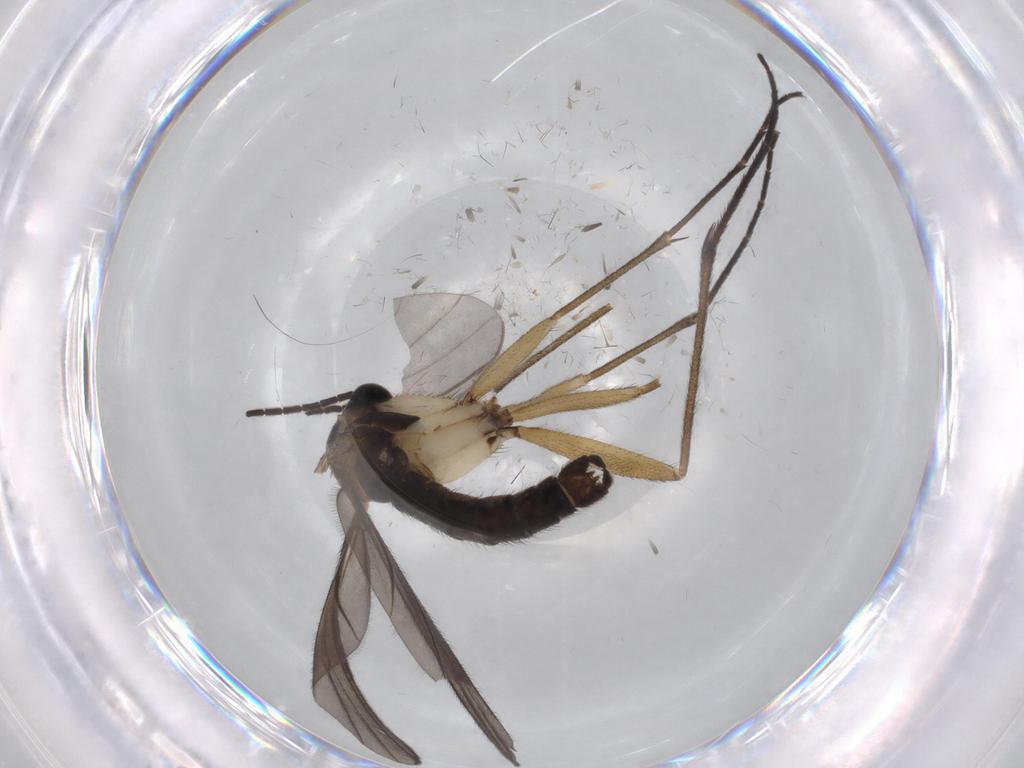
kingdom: Animalia
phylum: Arthropoda
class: Insecta
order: Diptera
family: Sciaridae
